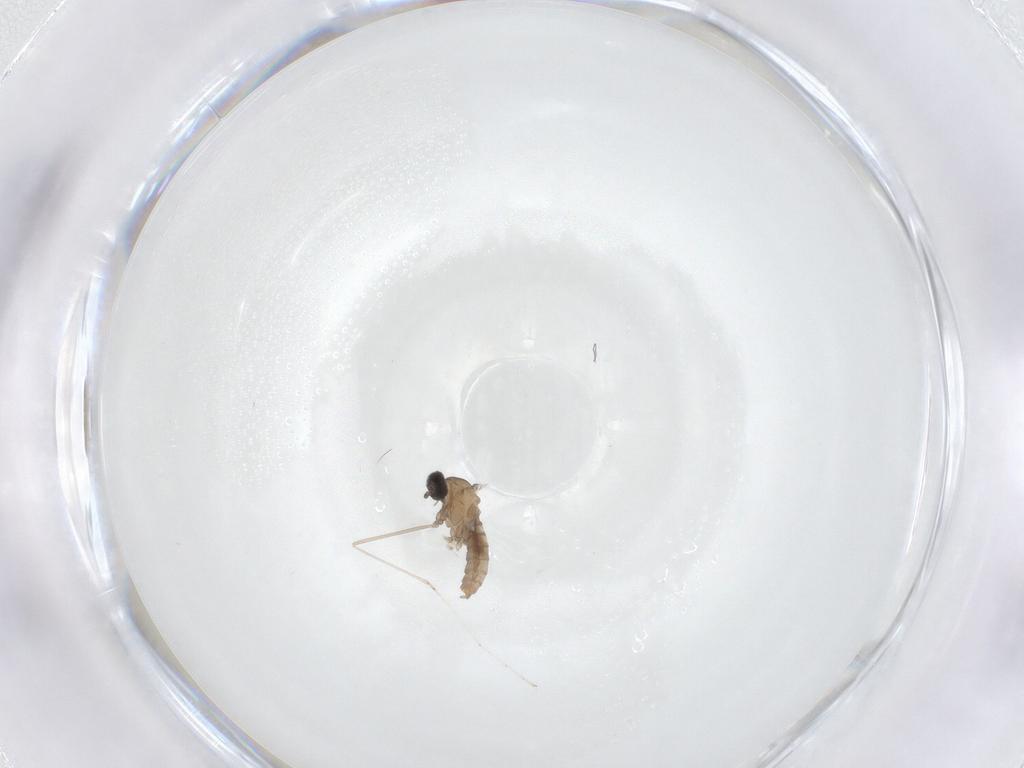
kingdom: Animalia
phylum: Arthropoda
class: Insecta
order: Diptera
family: Cecidomyiidae
